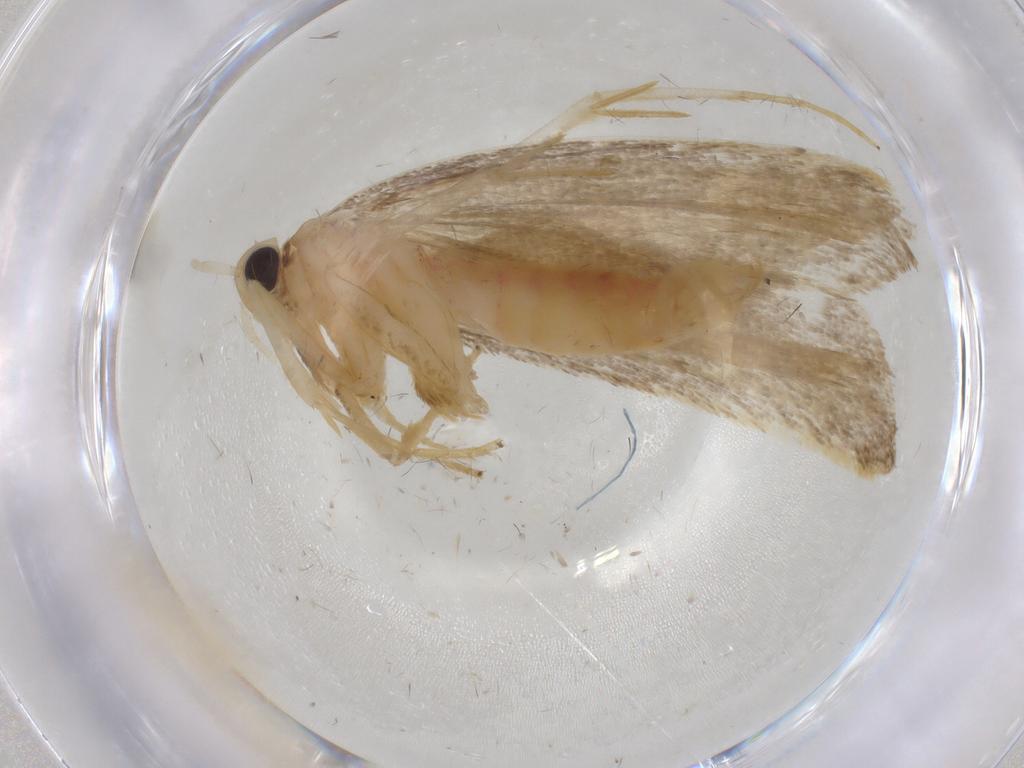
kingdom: Animalia
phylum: Arthropoda
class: Insecta
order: Lepidoptera
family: Lecithoceridae
